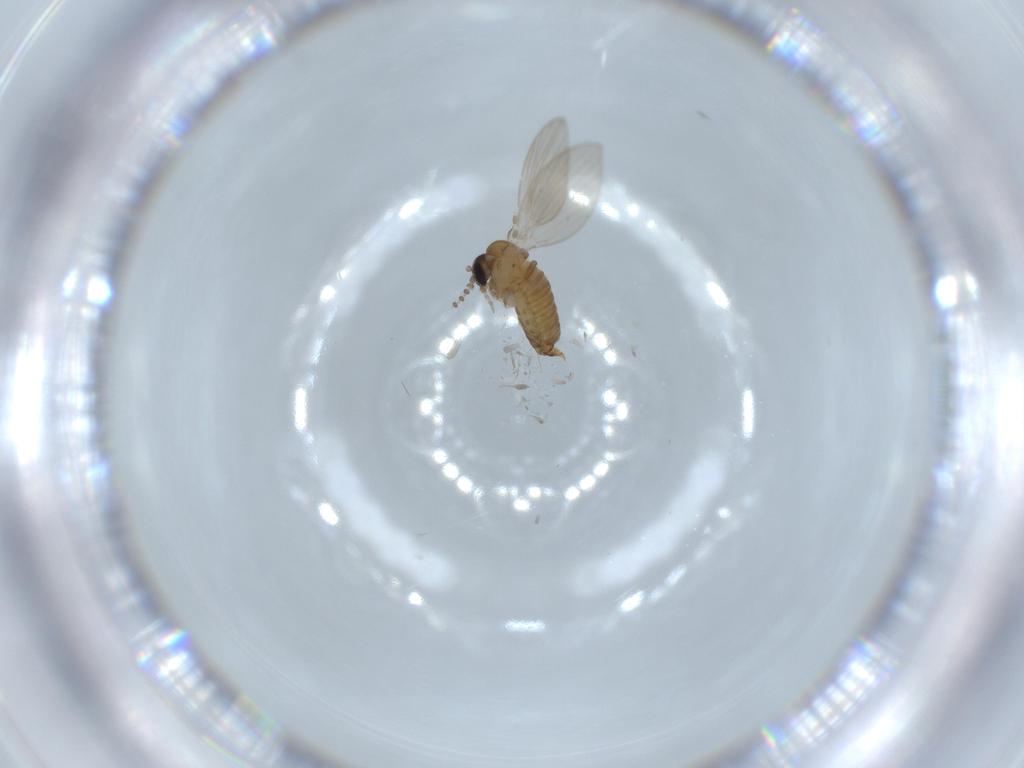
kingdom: Animalia
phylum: Arthropoda
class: Insecta
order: Diptera
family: Psychodidae
